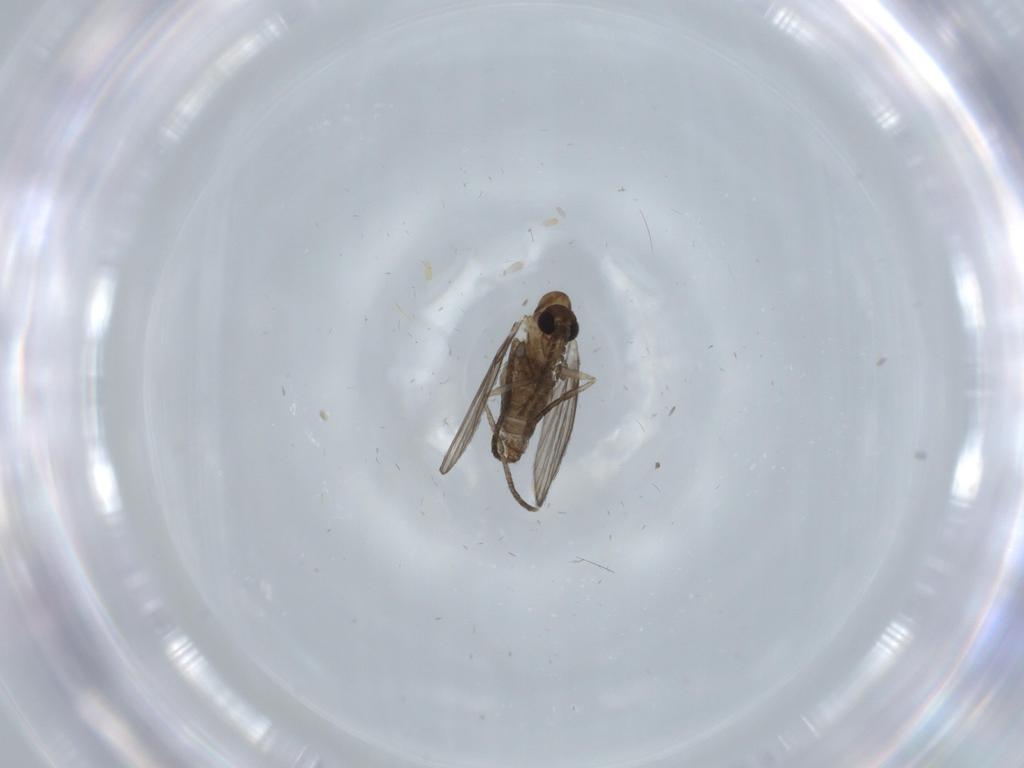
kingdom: Animalia
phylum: Arthropoda
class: Insecta
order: Diptera
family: Psychodidae
